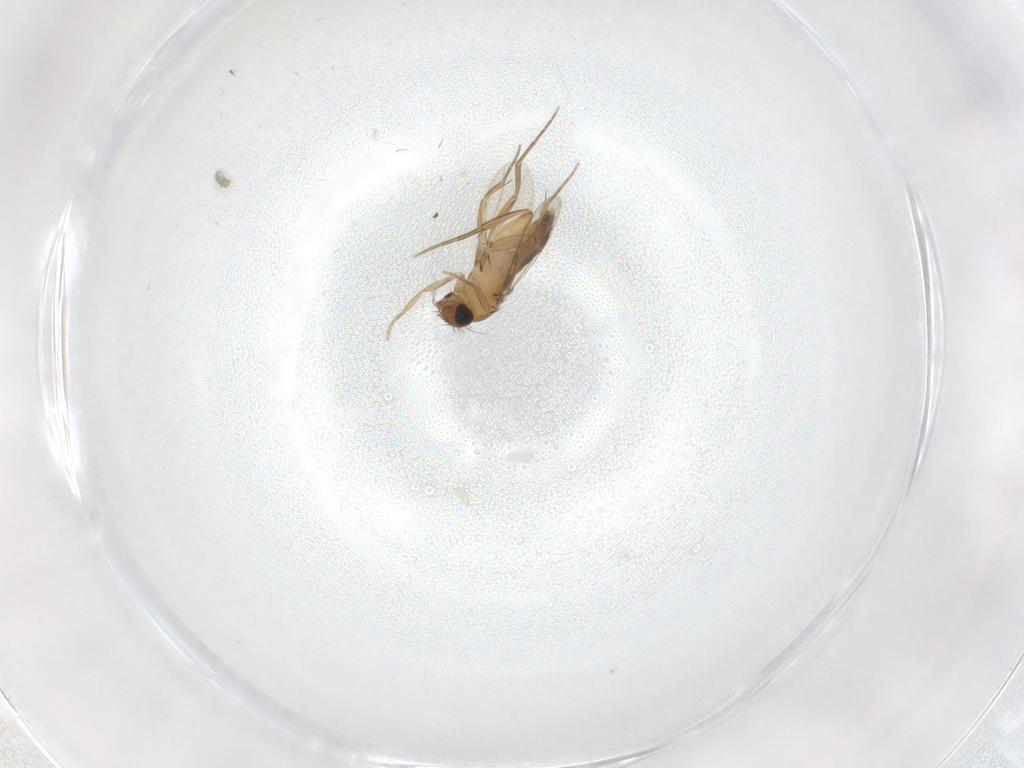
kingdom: Animalia
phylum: Arthropoda
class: Insecta
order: Diptera
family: Phoridae
